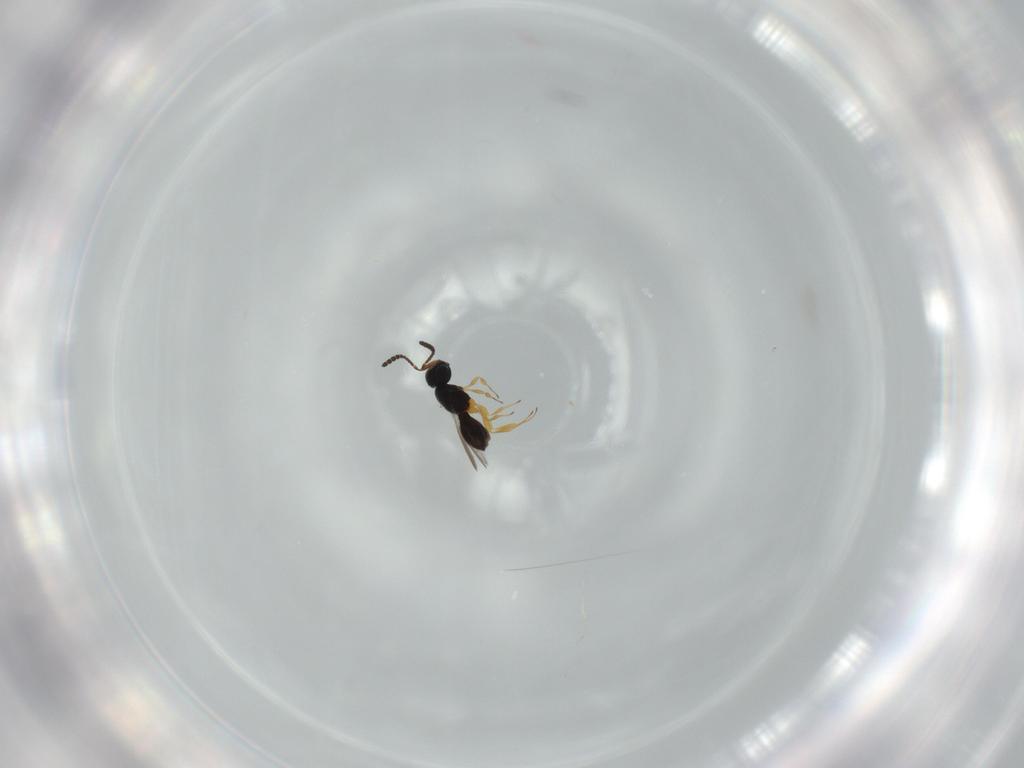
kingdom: Animalia
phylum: Arthropoda
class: Insecta
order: Hymenoptera
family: Scelionidae
